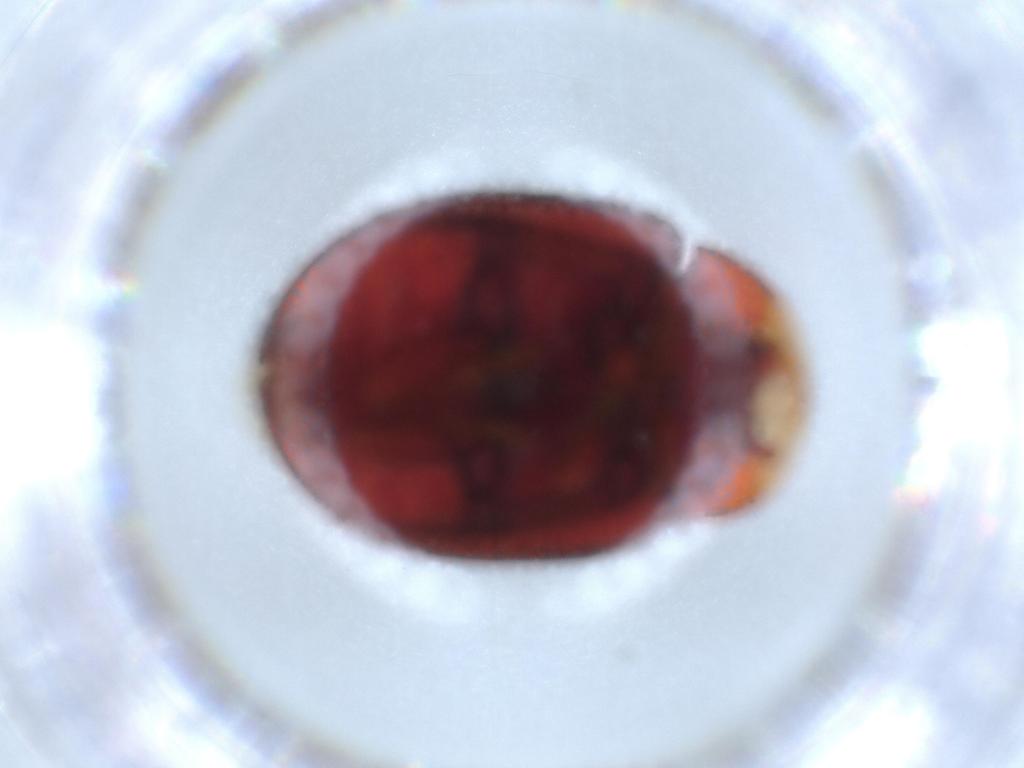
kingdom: Animalia
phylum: Arthropoda
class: Insecta
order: Coleoptera
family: Coccinellidae
